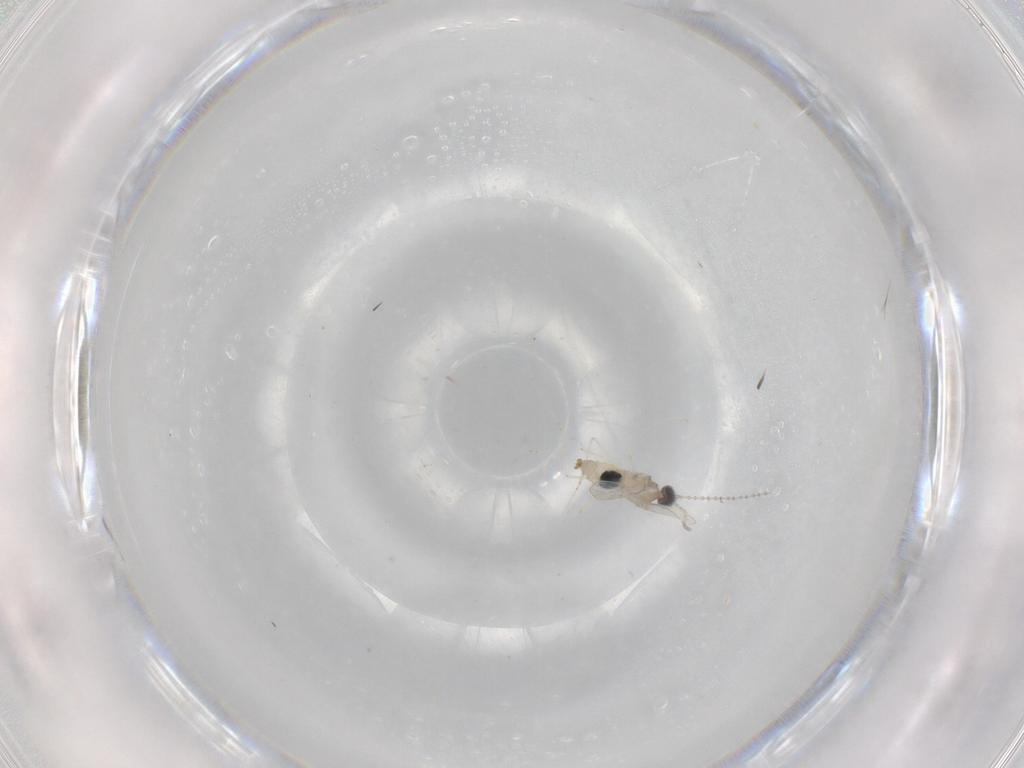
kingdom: Animalia
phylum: Arthropoda
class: Insecta
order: Diptera
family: Cecidomyiidae
